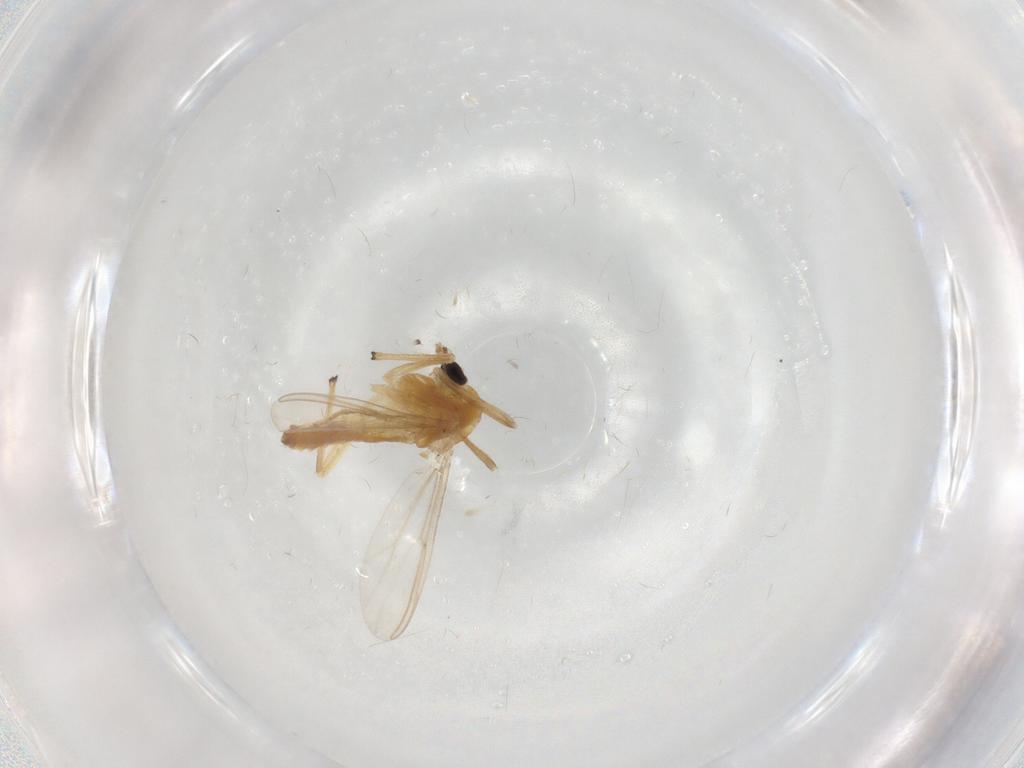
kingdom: Animalia
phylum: Arthropoda
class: Insecta
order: Diptera
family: Chironomidae
